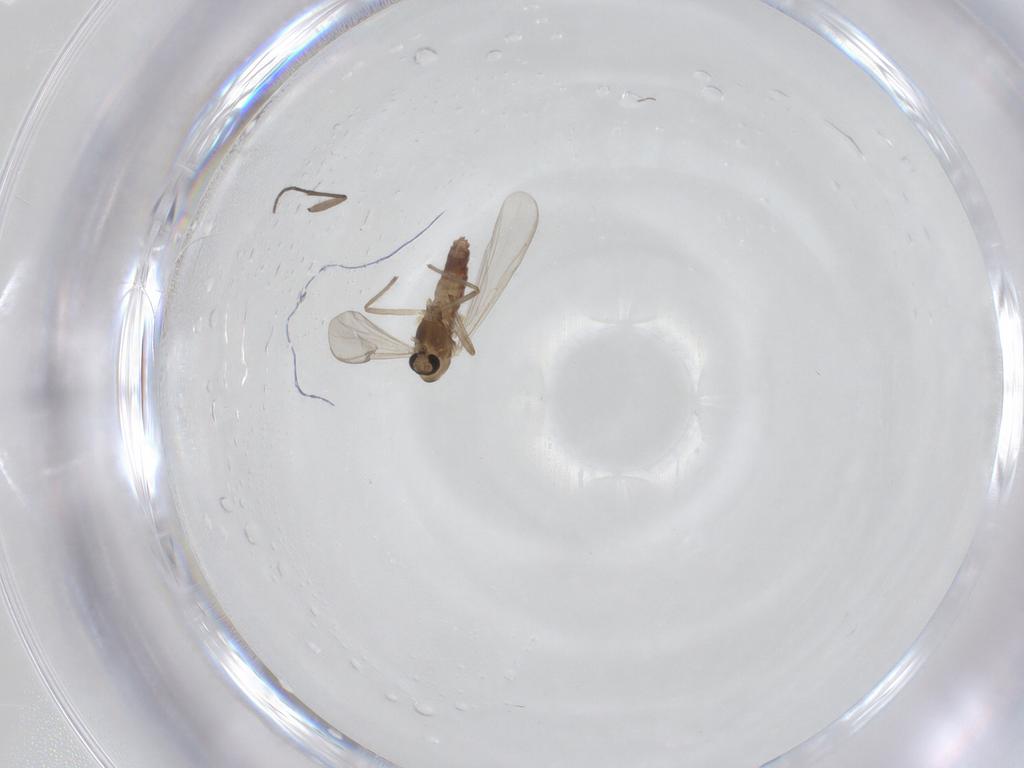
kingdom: Animalia
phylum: Arthropoda
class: Insecta
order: Diptera
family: Chironomidae
